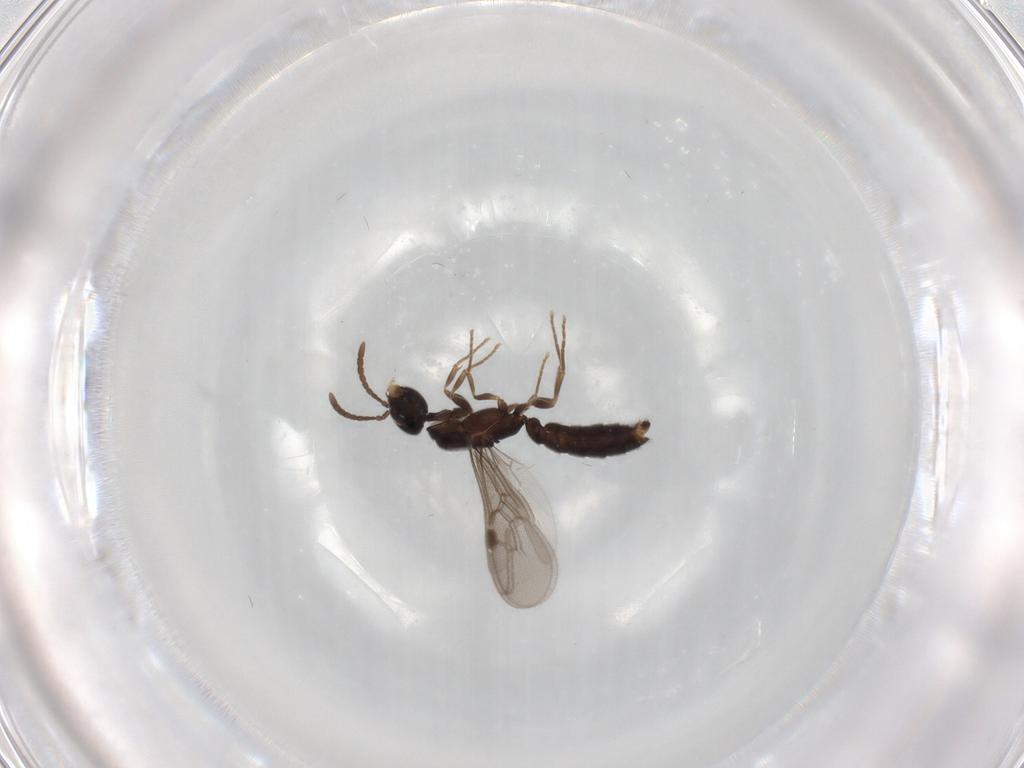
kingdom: Animalia
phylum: Arthropoda
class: Insecta
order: Hymenoptera
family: Formicidae
